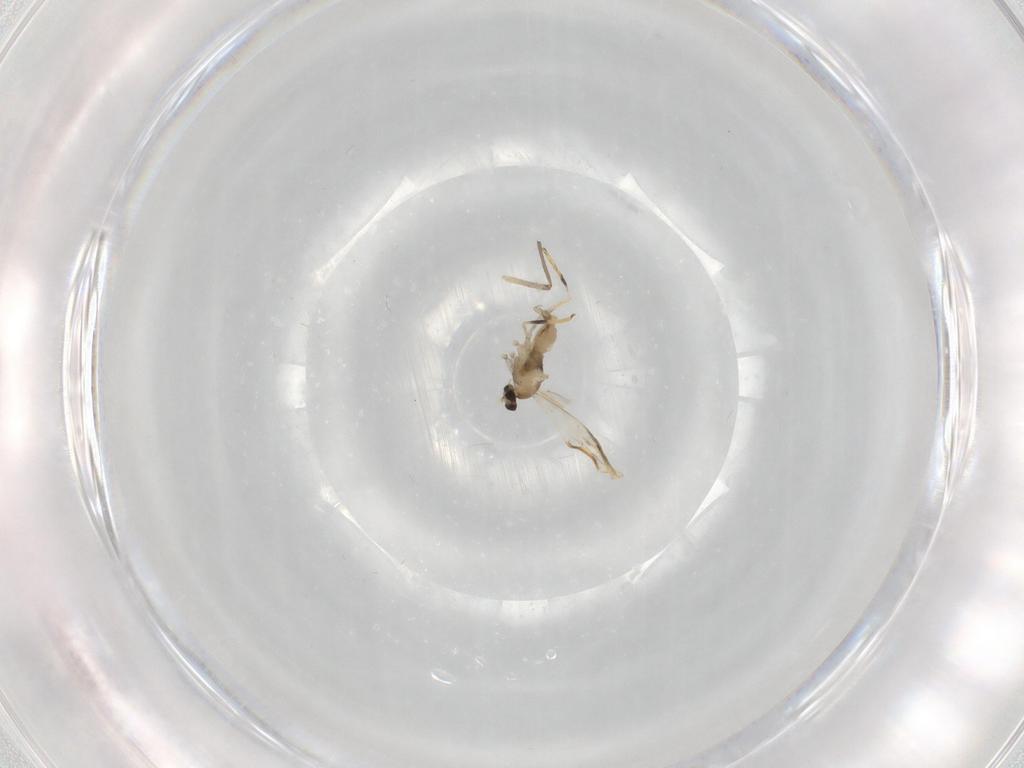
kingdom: Animalia
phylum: Arthropoda
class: Insecta
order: Diptera
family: Cecidomyiidae
